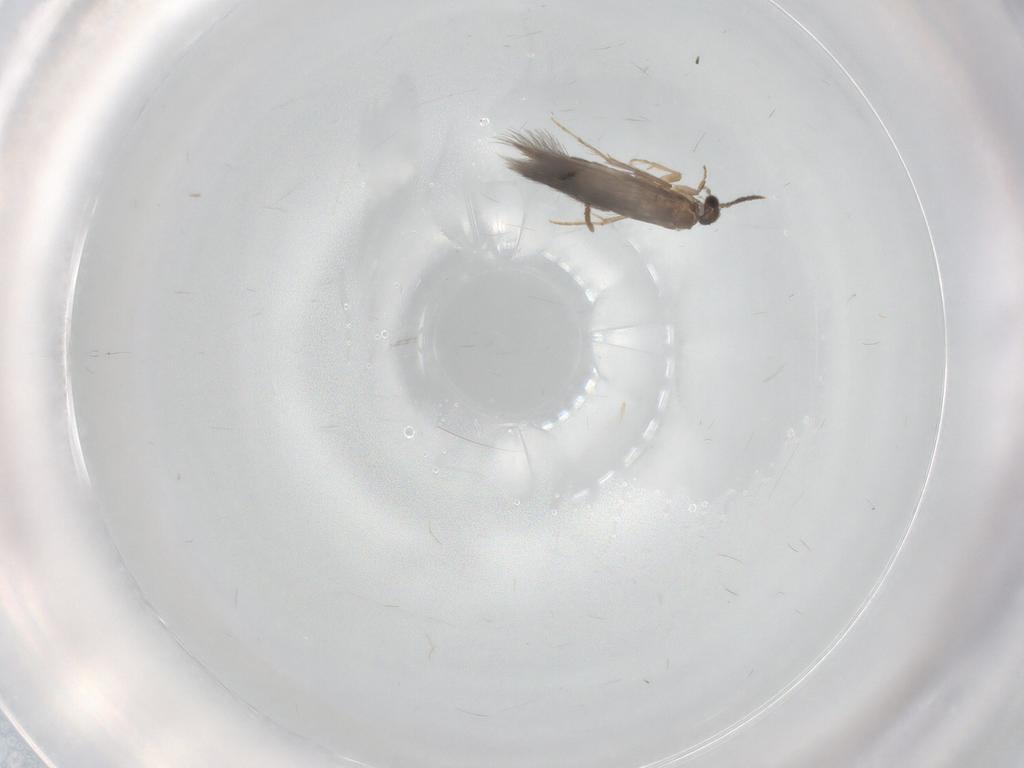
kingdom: Animalia
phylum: Arthropoda
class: Insecta
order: Trichoptera
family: Hydroptilidae
